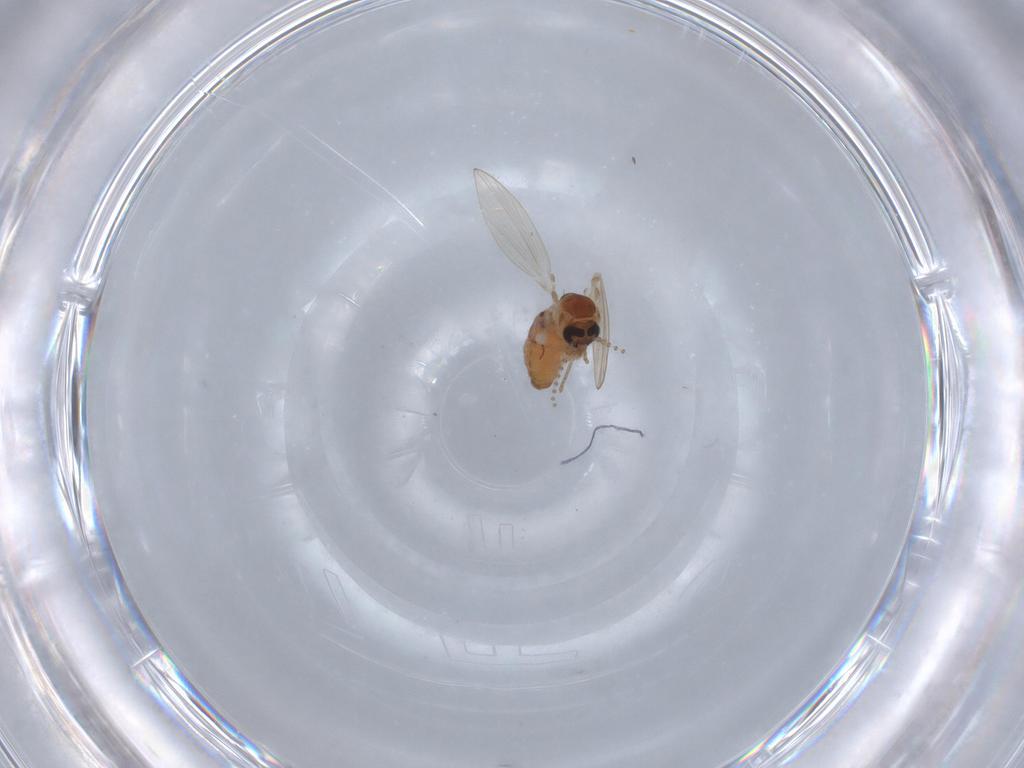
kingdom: Animalia
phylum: Arthropoda
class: Insecta
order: Diptera
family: Psychodidae
